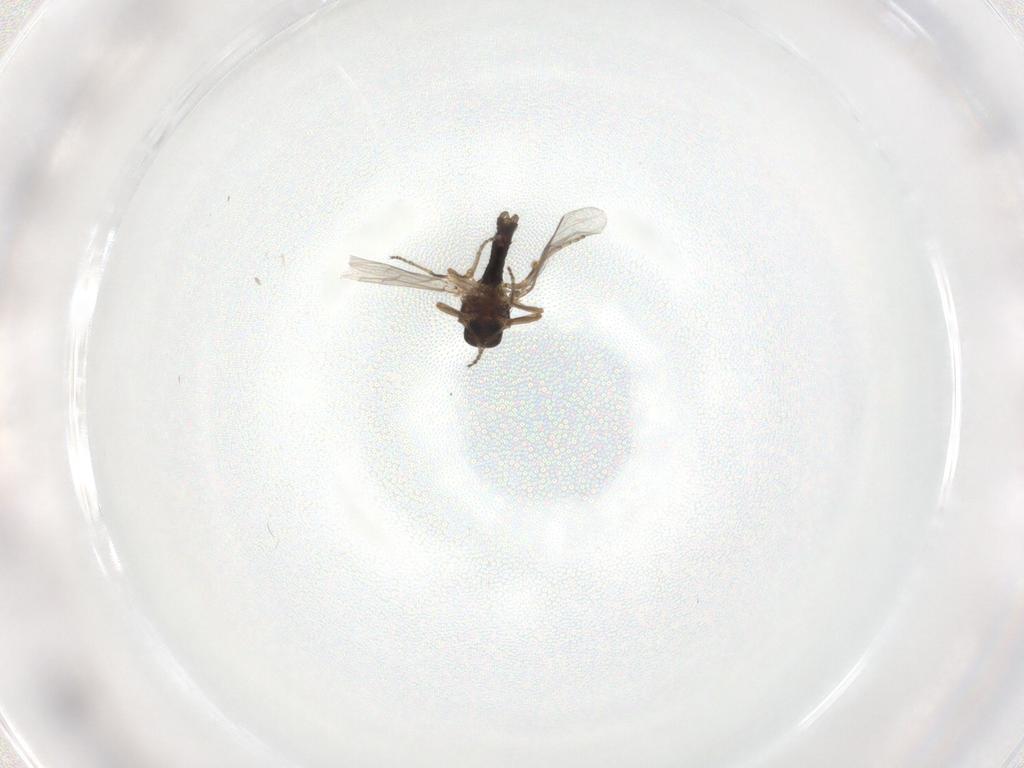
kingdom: Animalia
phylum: Arthropoda
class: Insecta
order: Diptera
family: Ceratopogonidae
